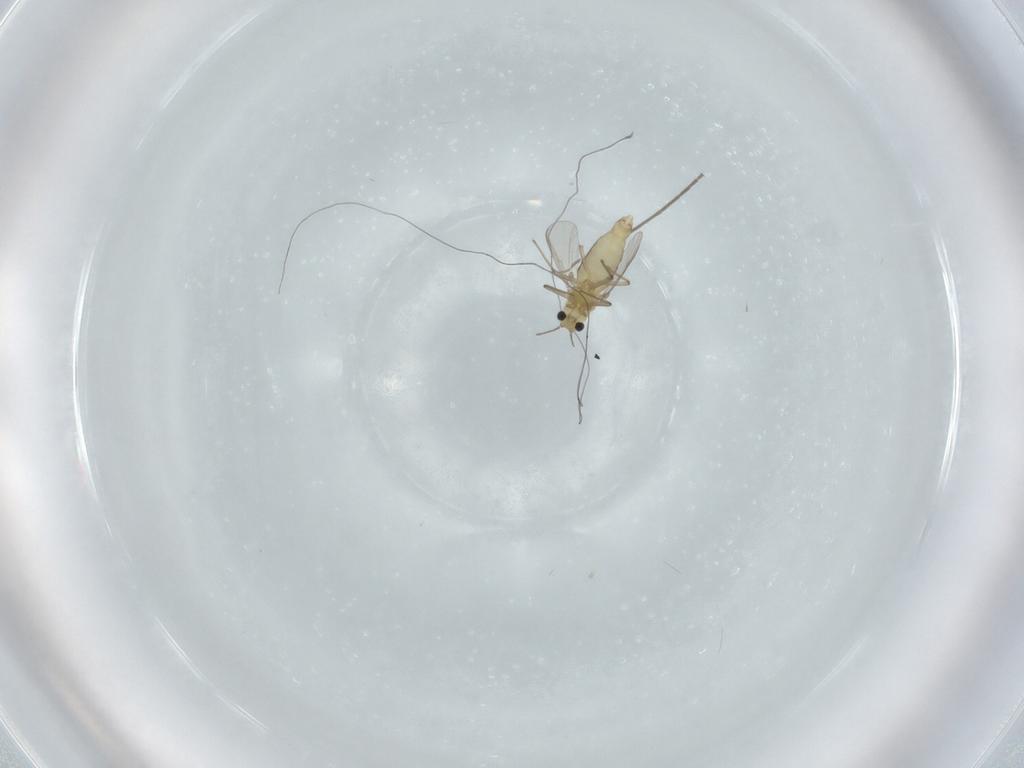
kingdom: Animalia
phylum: Arthropoda
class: Insecta
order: Diptera
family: Chironomidae
